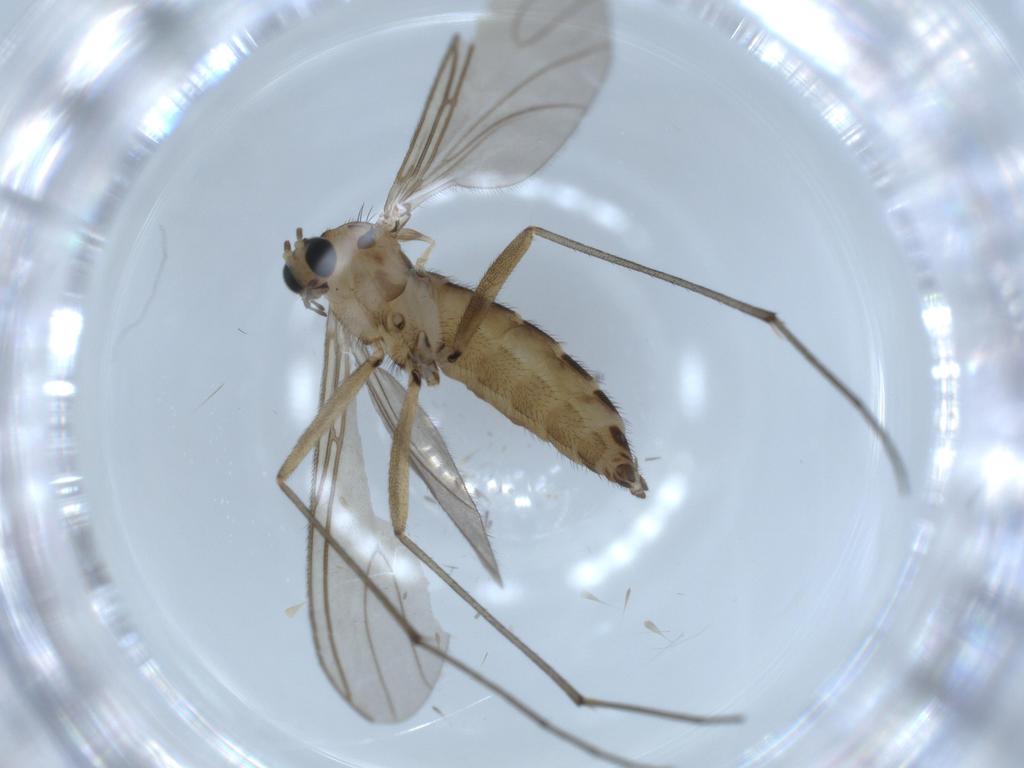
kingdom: Animalia
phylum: Arthropoda
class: Insecta
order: Diptera
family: Sciaridae
